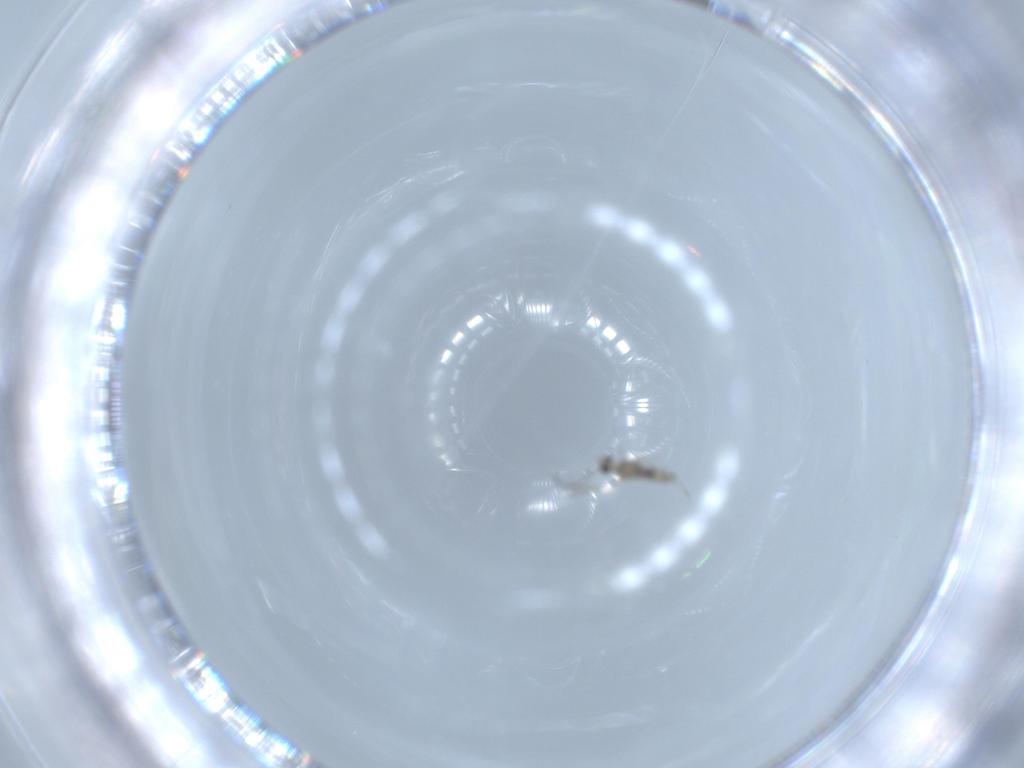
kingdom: Animalia
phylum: Arthropoda
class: Insecta
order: Diptera
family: Cecidomyiidae
